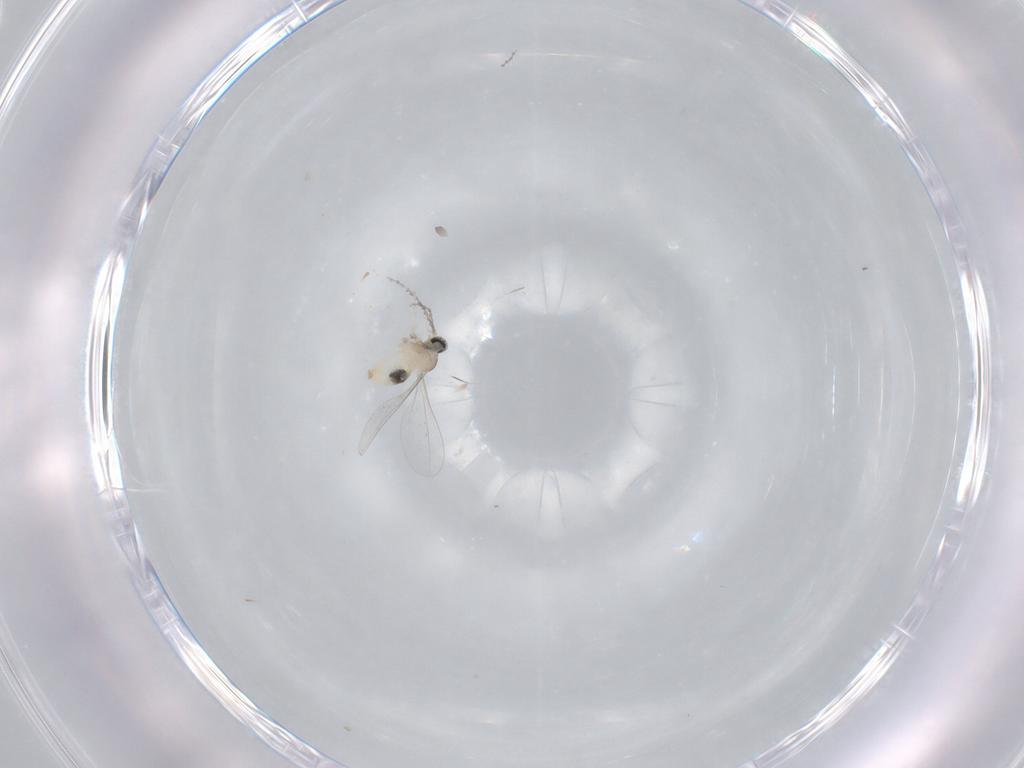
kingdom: Animalia
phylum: Arthropoda
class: Insecta
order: Diptera
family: Cecidomyiidae
